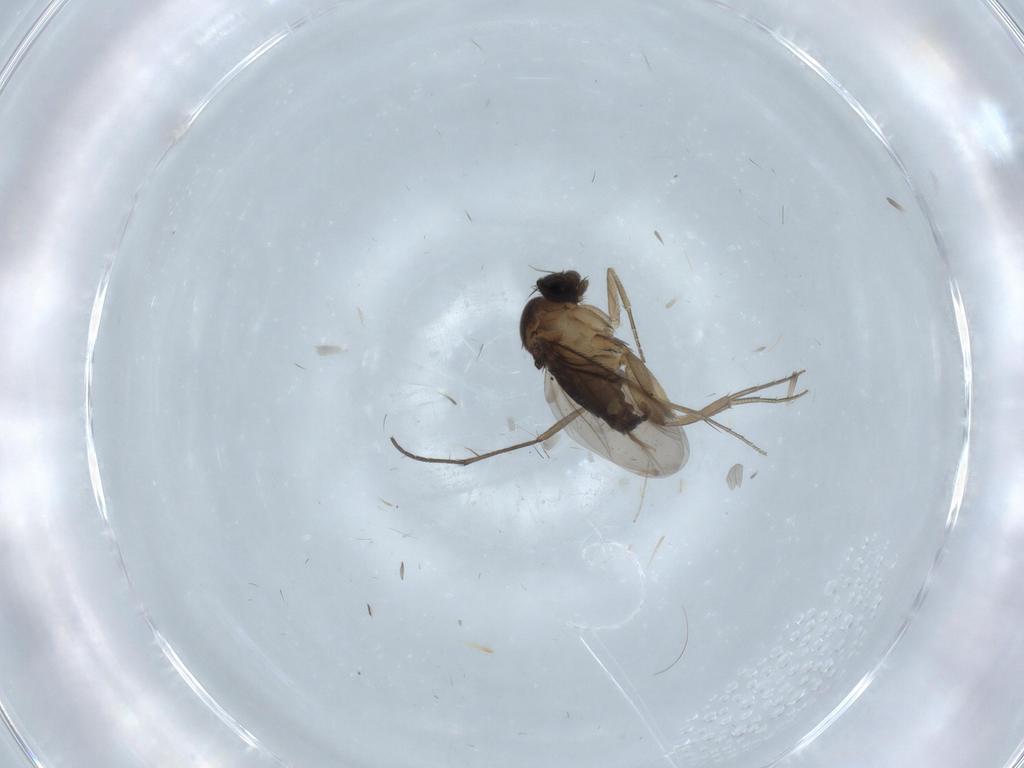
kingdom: Animalia
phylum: Arthropoda
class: Insecta
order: Diptera
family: Cecidomyiidae
